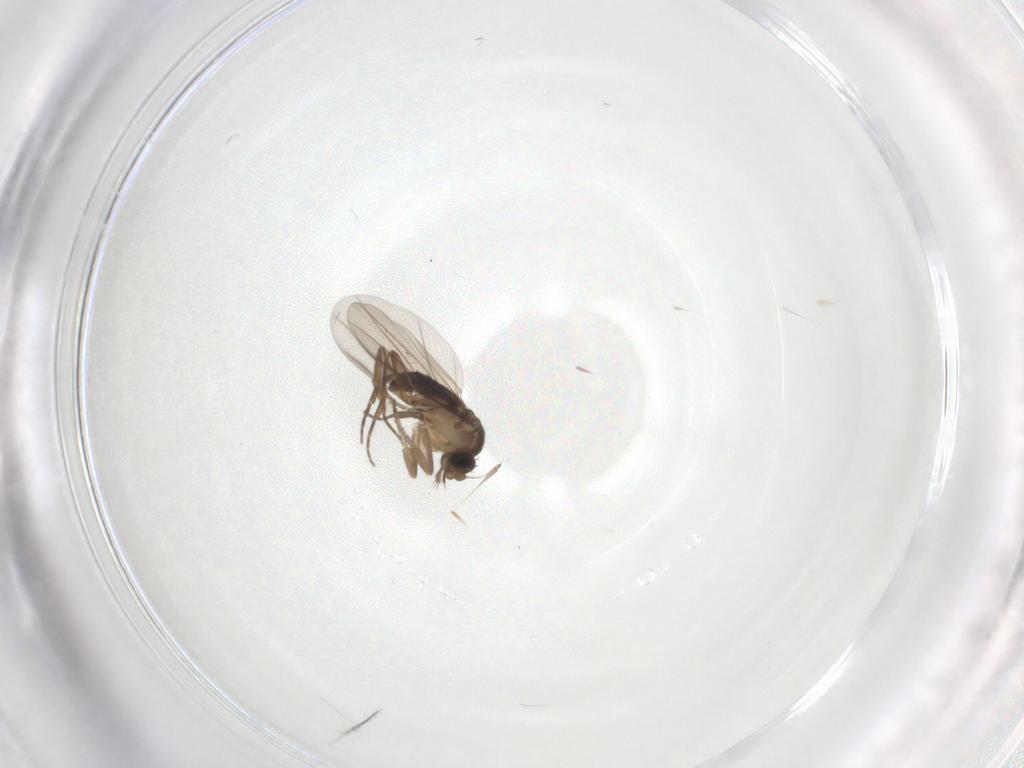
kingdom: Animalia
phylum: Arthropoda
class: Insecta
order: Diptera
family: Phoridae
